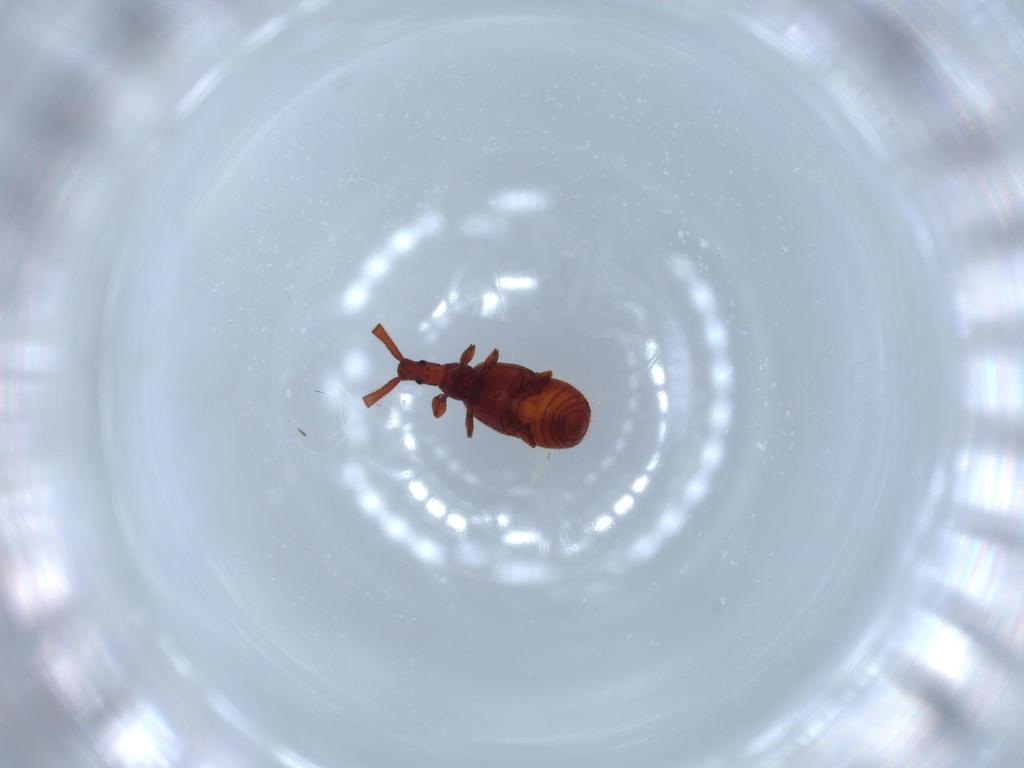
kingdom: Animalia
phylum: Arthropoda
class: Insecta
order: Coleoptera
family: Staphylinidae
